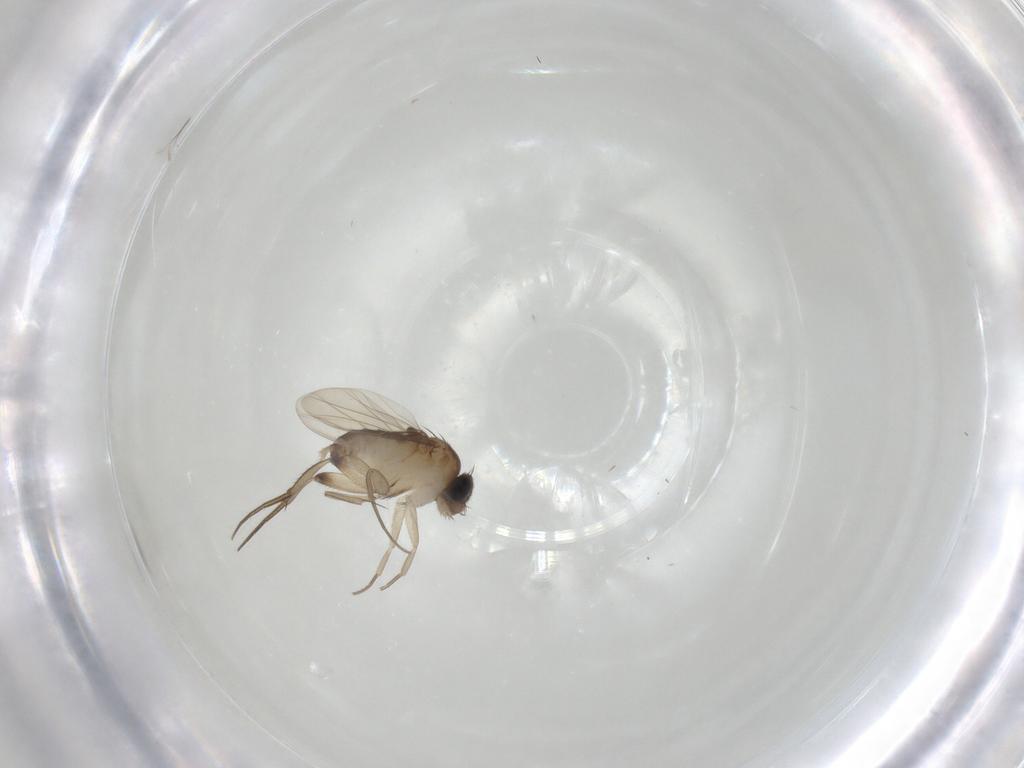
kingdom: Animalia
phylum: Arthropoda
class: Insecta
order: Diptera
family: Phoridae
